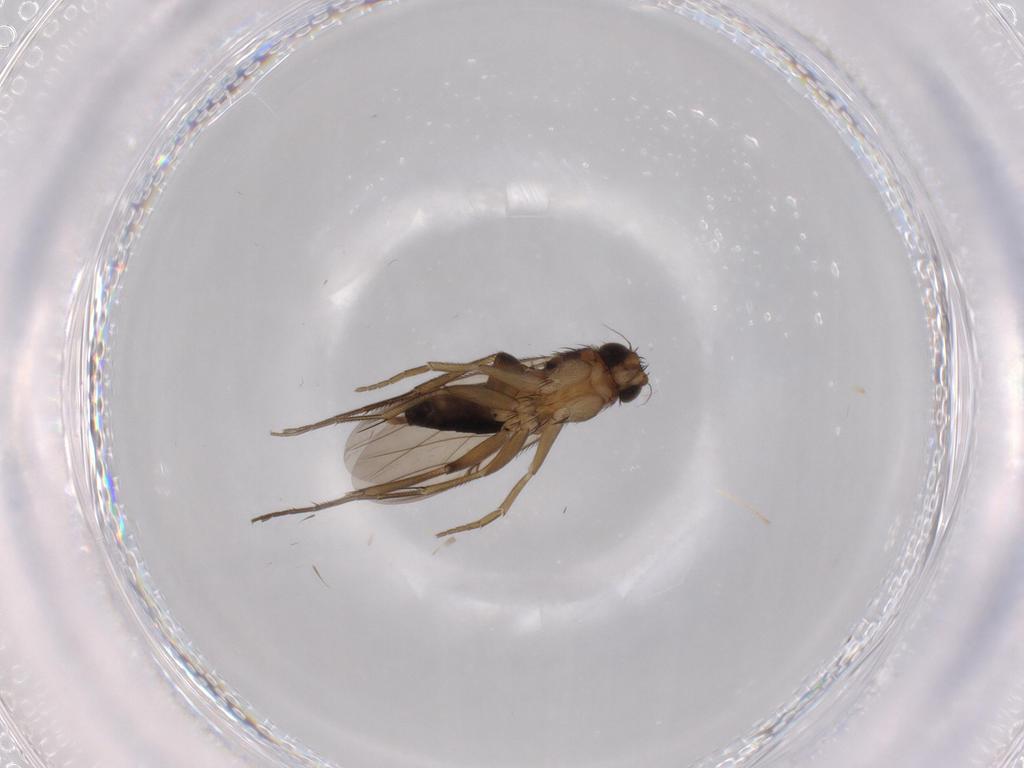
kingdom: Animalia
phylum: Arthropoda
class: Insecta
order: Diptera
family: Phoridae
